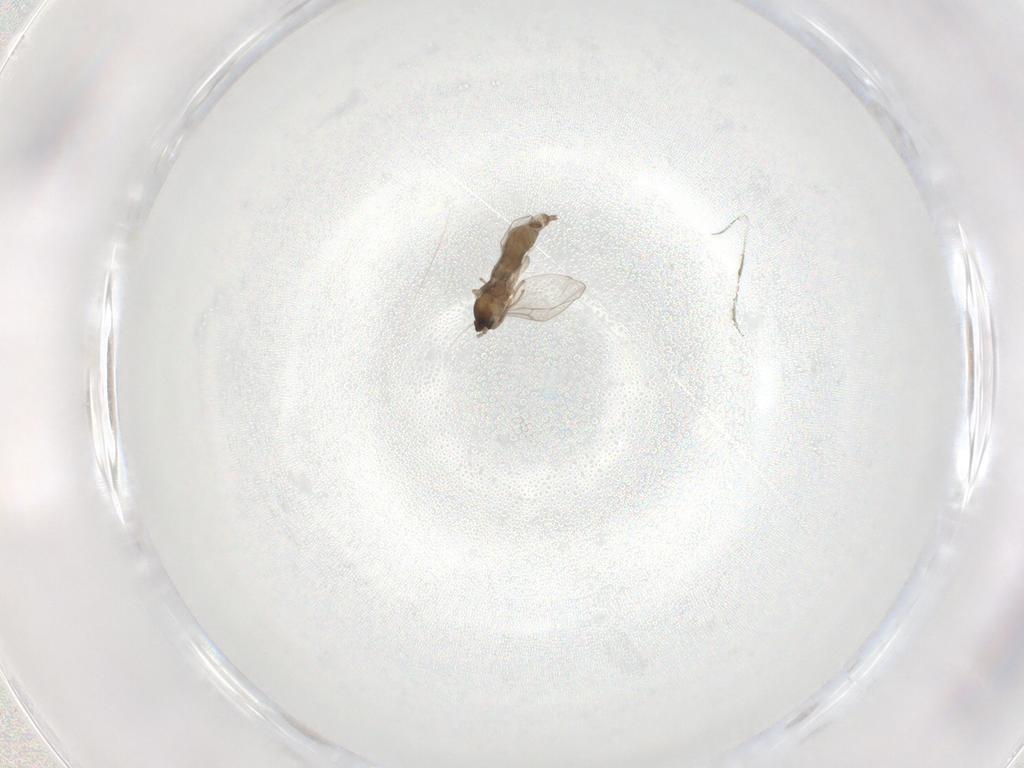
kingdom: Animalia
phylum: Arthropoda
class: Insecta
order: Diptera
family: Cecidomyiidae
